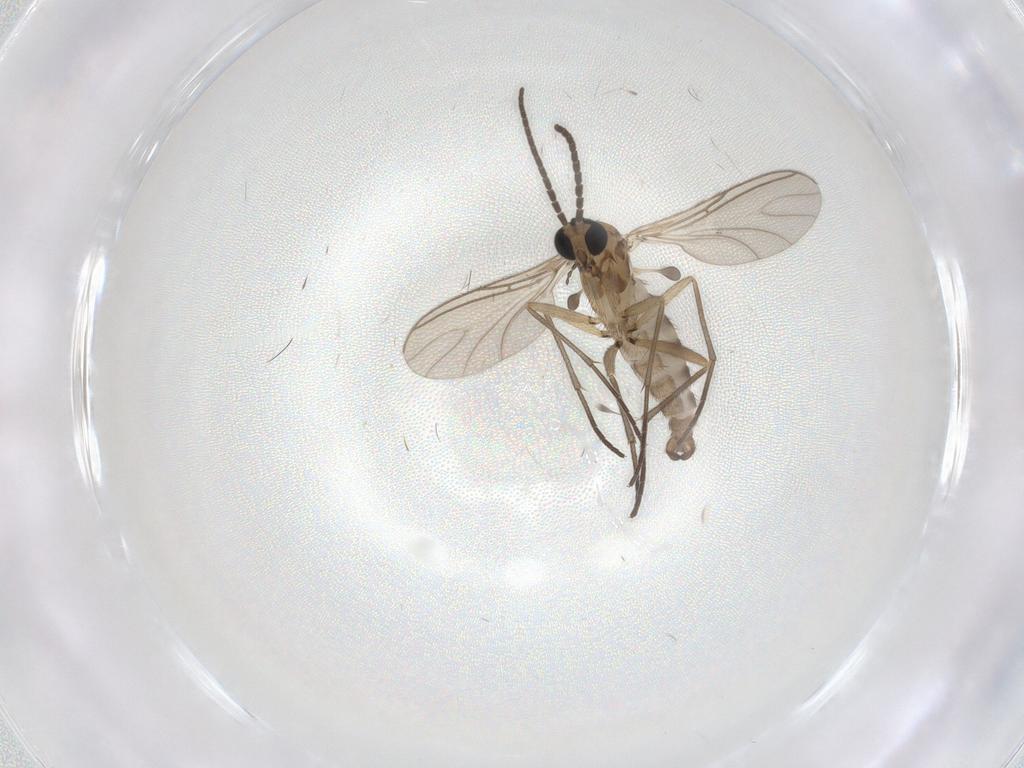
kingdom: Animalia
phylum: Arthropoda
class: Insecta
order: Diptera
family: Sciaridae
